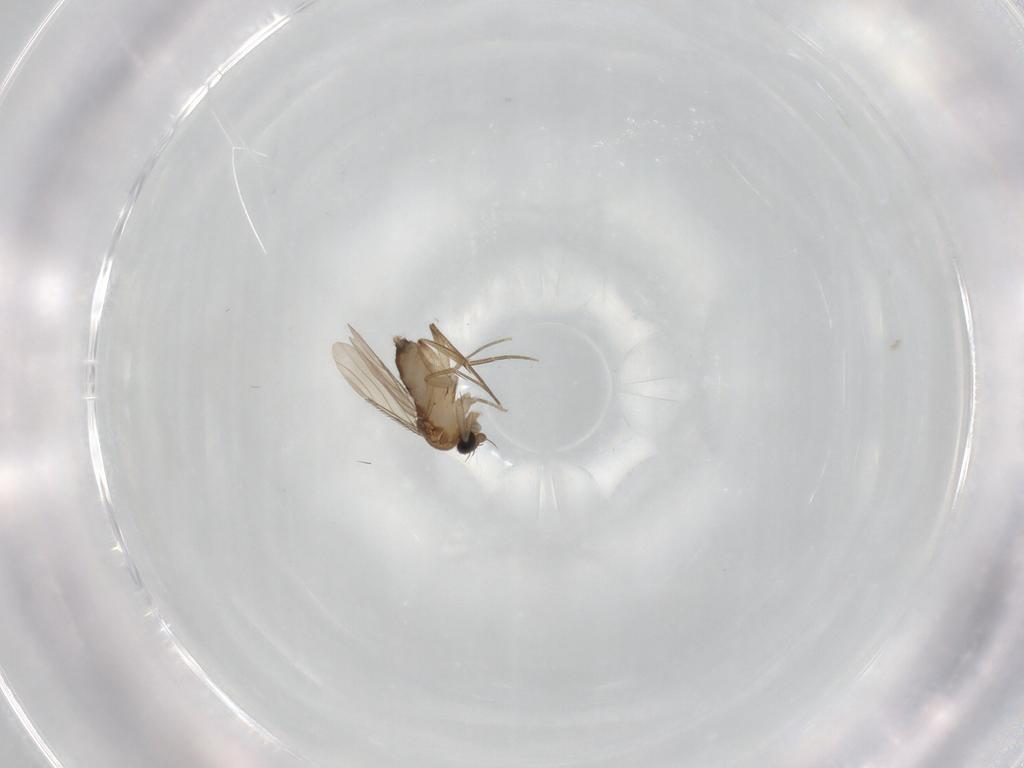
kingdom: Animalia
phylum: Arthropoda
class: Insecta
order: Diptera
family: Phoridae
